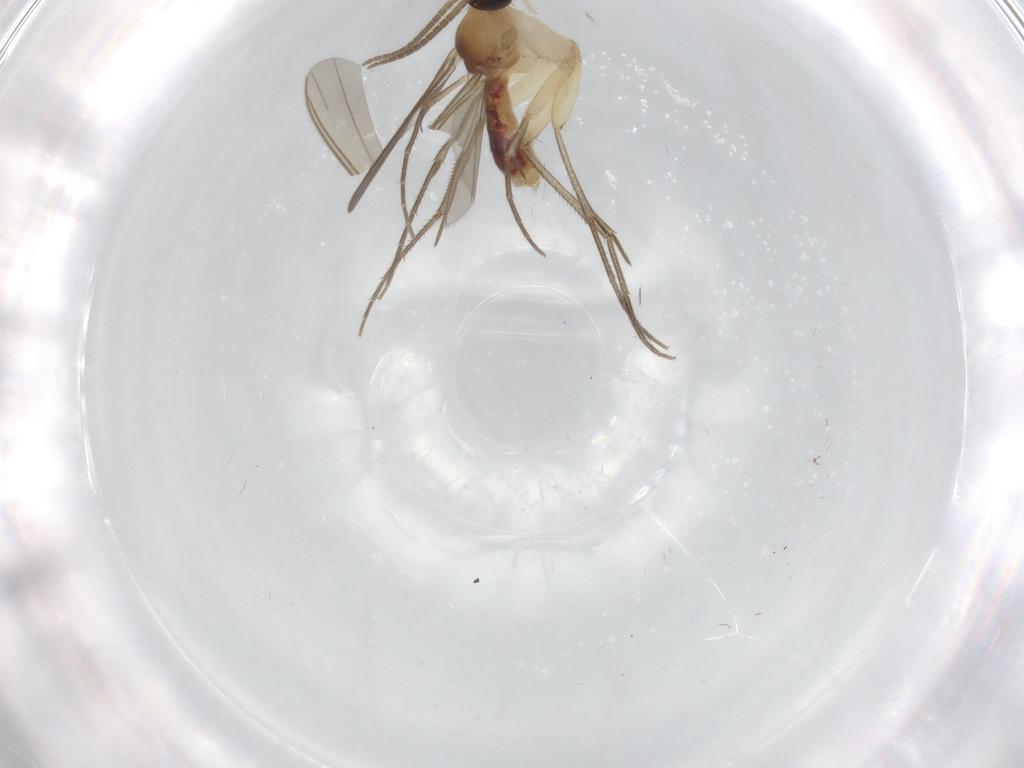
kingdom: Animalia
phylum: Arthropoda
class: Insecta
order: Diptera
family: Mycetophilidae
